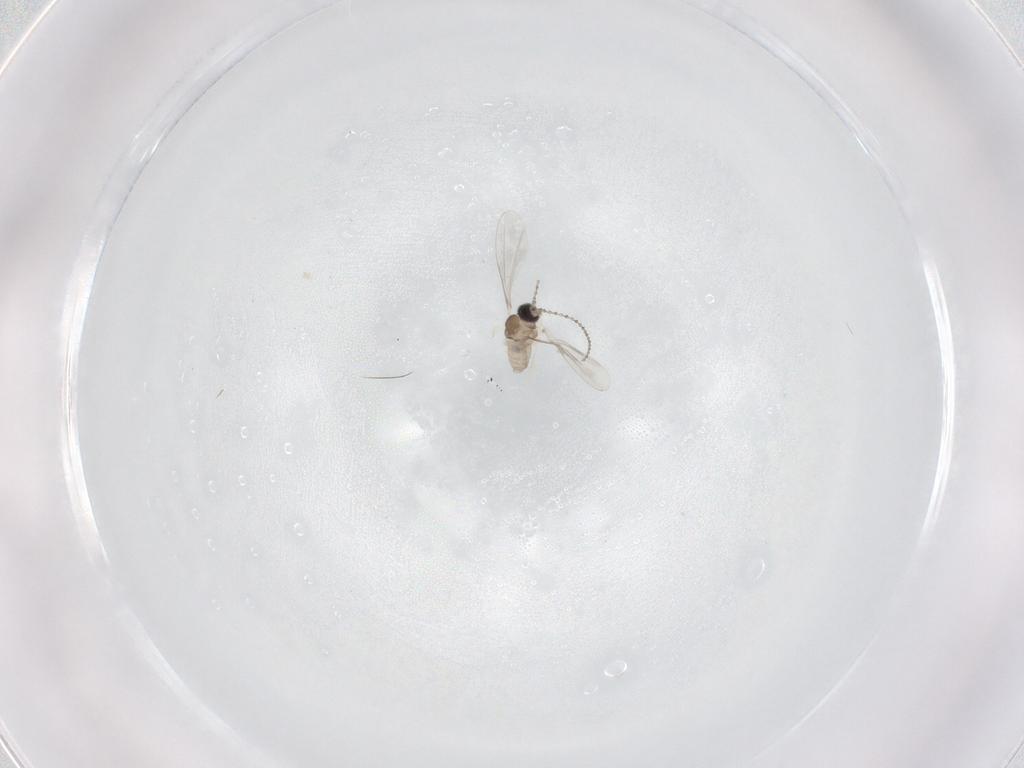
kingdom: Animalia
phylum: Arthropoda
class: Insecta
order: Diptera
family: Cecidomyiidae
